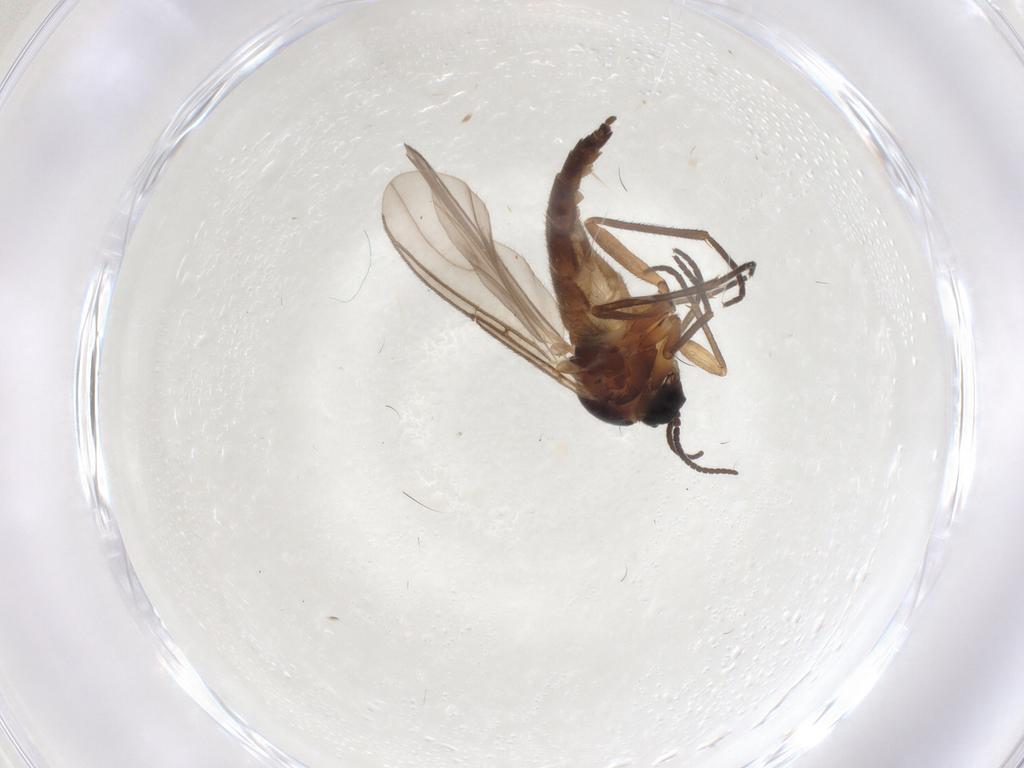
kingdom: Animalia
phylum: Arthropoda
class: Insecta
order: Diptera
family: Sciaridae
